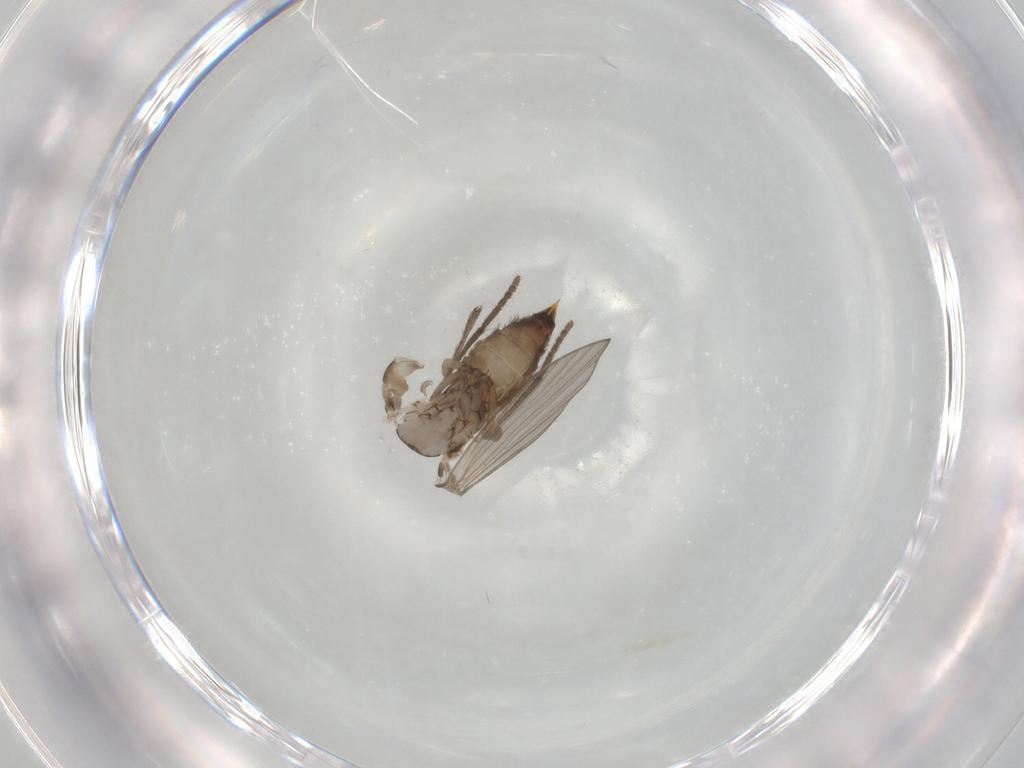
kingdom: Animalia
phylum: Arthropoda
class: Insecta
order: Diptera
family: Psychodidae
